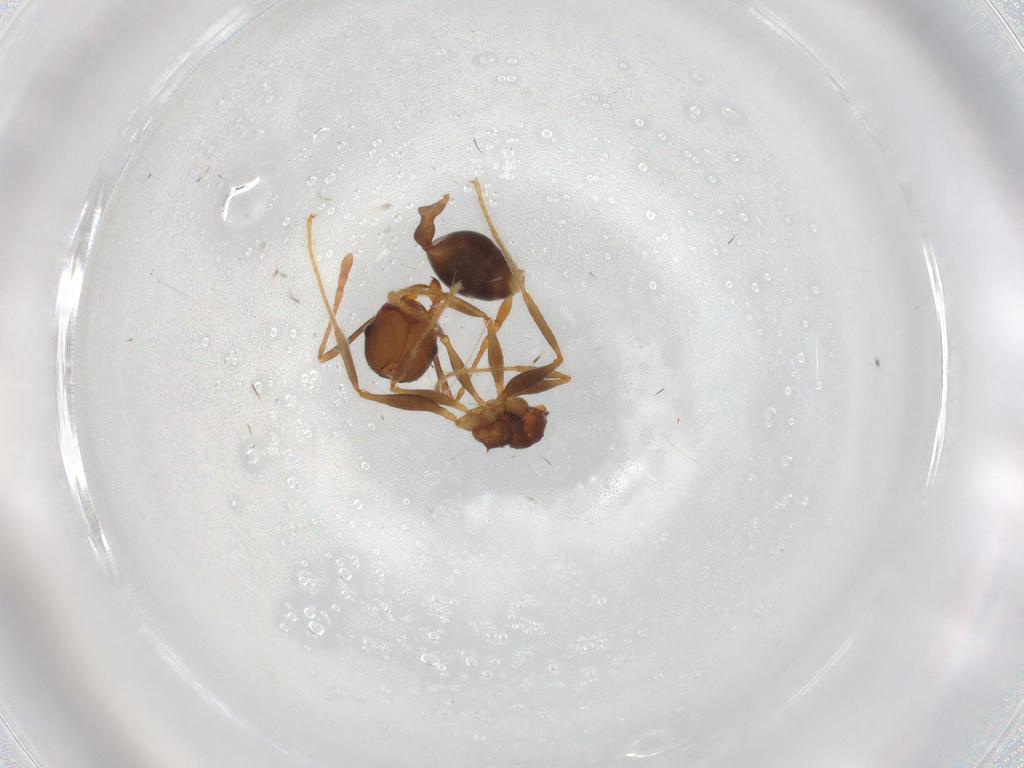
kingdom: Animalia
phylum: Arthropoda
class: Insecta
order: Hymenoptera
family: Formicidae
